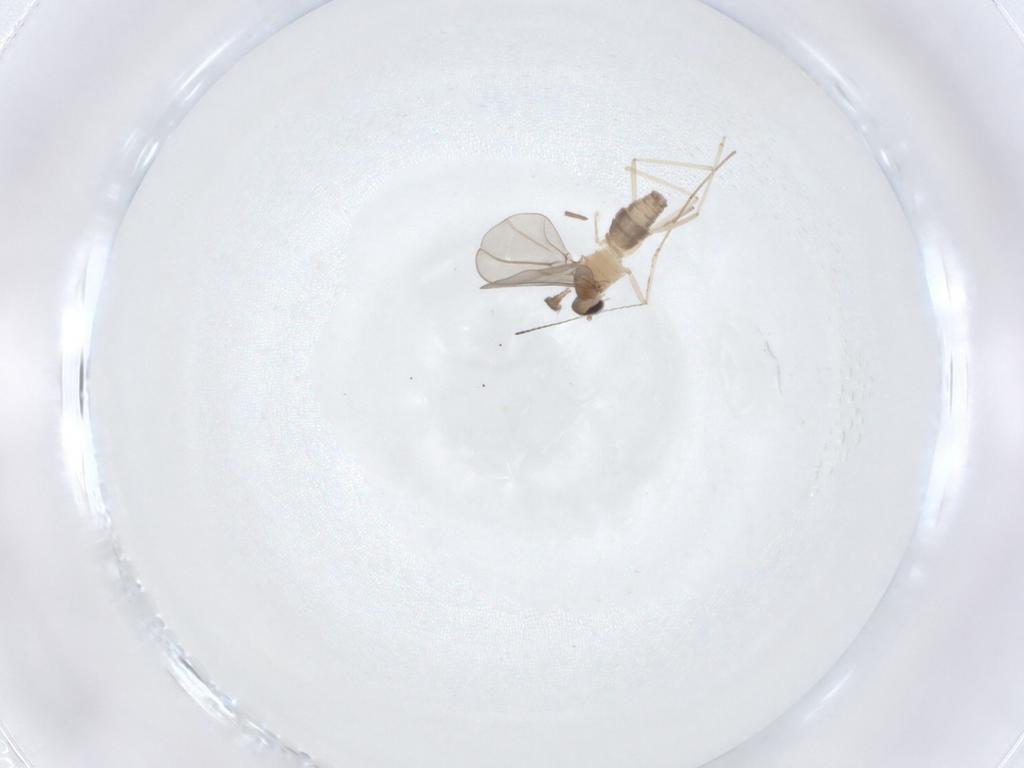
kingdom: Animalia
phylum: Arthropoda
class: Insecta
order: Diptera
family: Cecidomyiidae
